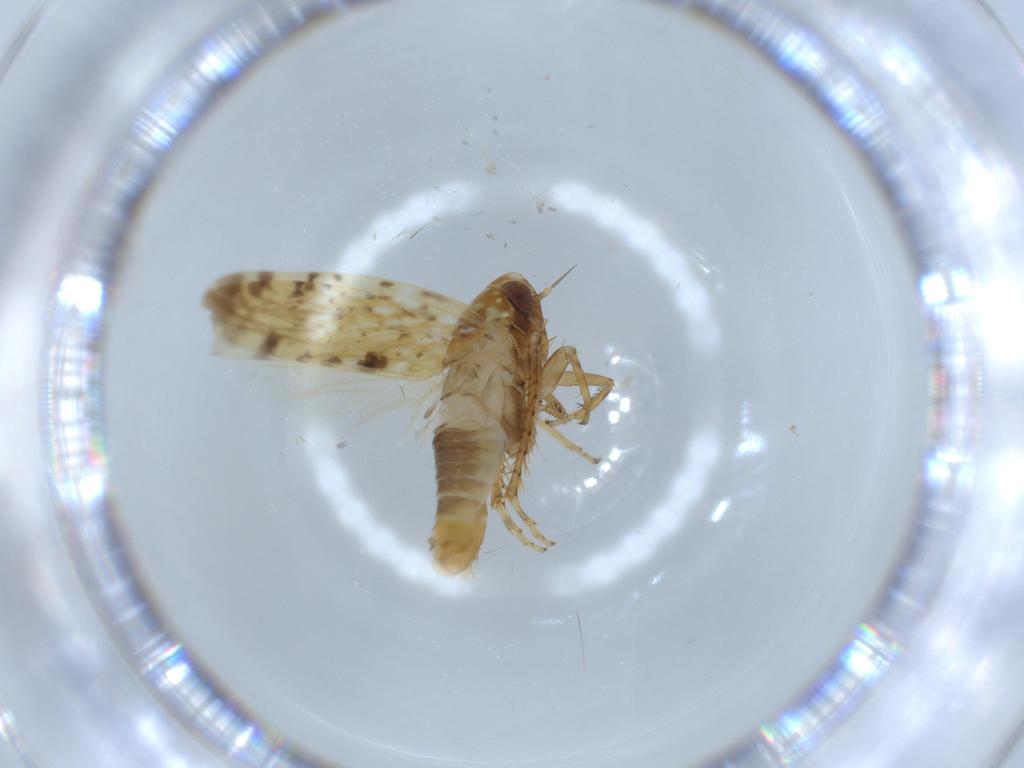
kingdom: Animalia
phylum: Arthropoda
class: Insecta
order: Hemiptera
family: Cicadellidae
